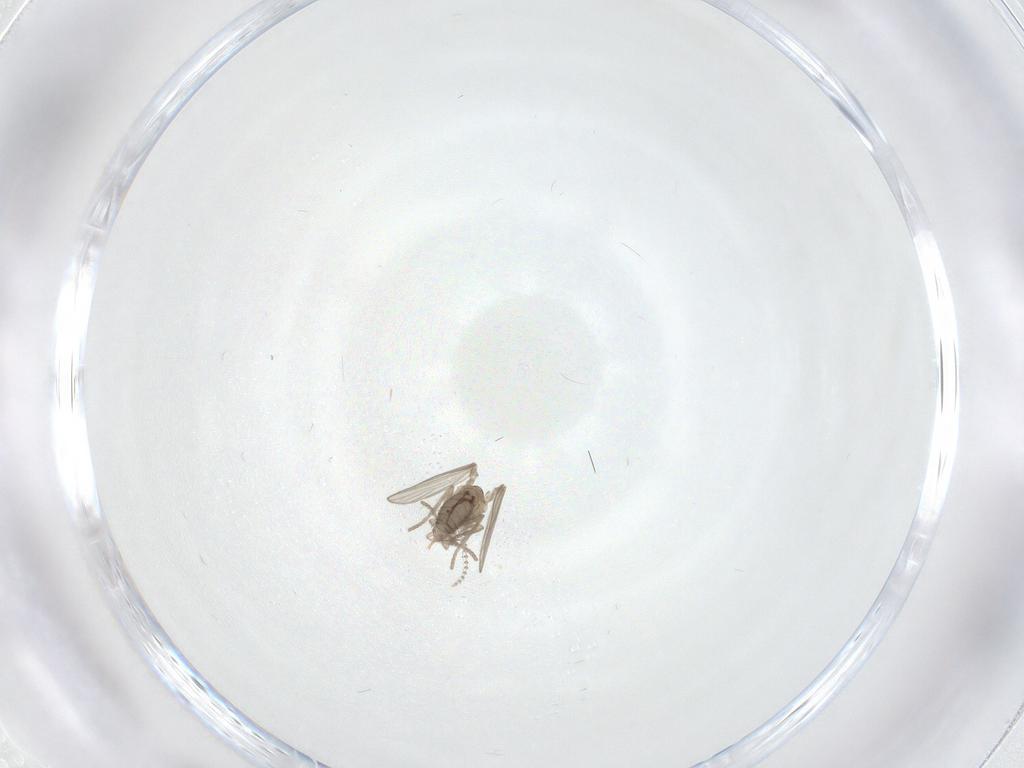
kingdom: Animalia
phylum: Arthropoda
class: Insecta
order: Diptera
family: Psychodidae
